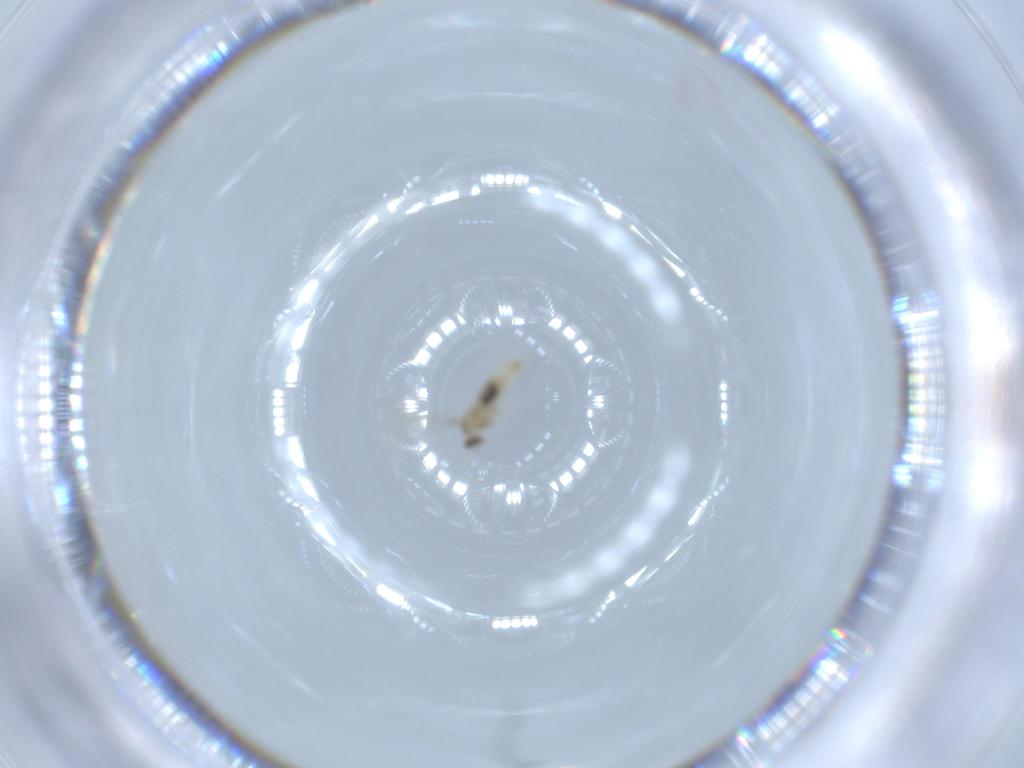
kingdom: Animalia
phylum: Arthropoda
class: Insecta
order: Diptera
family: Cecidomyiidae
